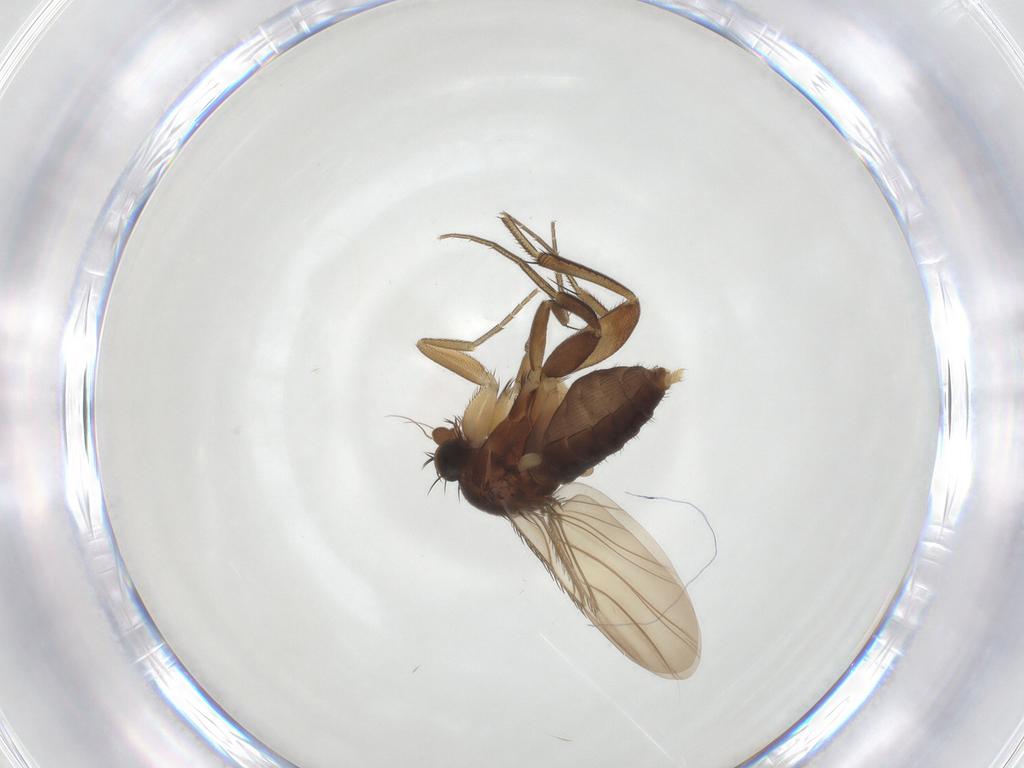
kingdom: Animalia
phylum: Arthropoda
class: Insecta
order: Diptera
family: Phoridae
